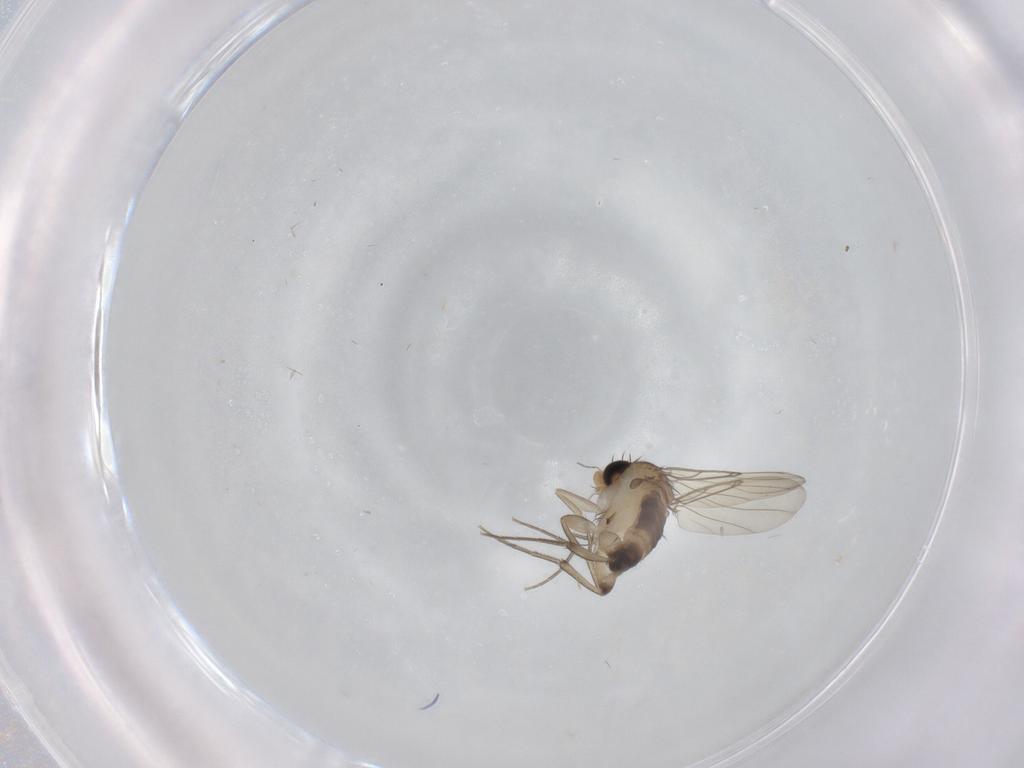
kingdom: Animalia
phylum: Arthropoda
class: Insecta
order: Diptera
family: Phoridae
